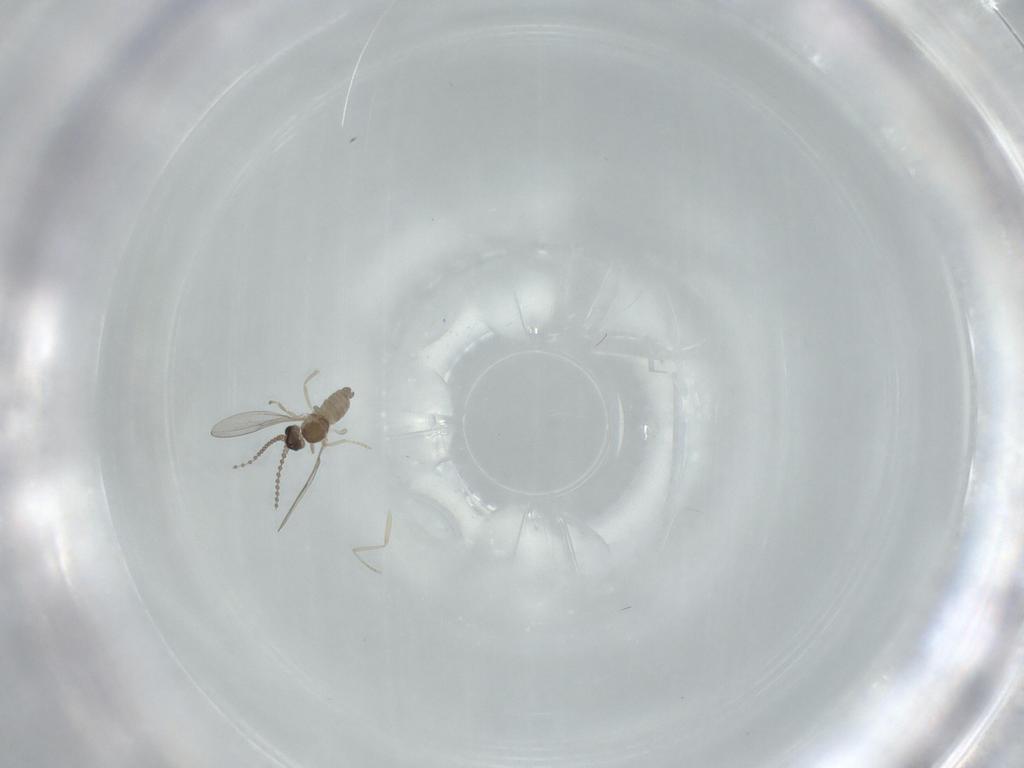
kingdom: Animalia
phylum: Arthropoda
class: Insecta
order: Diptera
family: Cecidomyiidae
